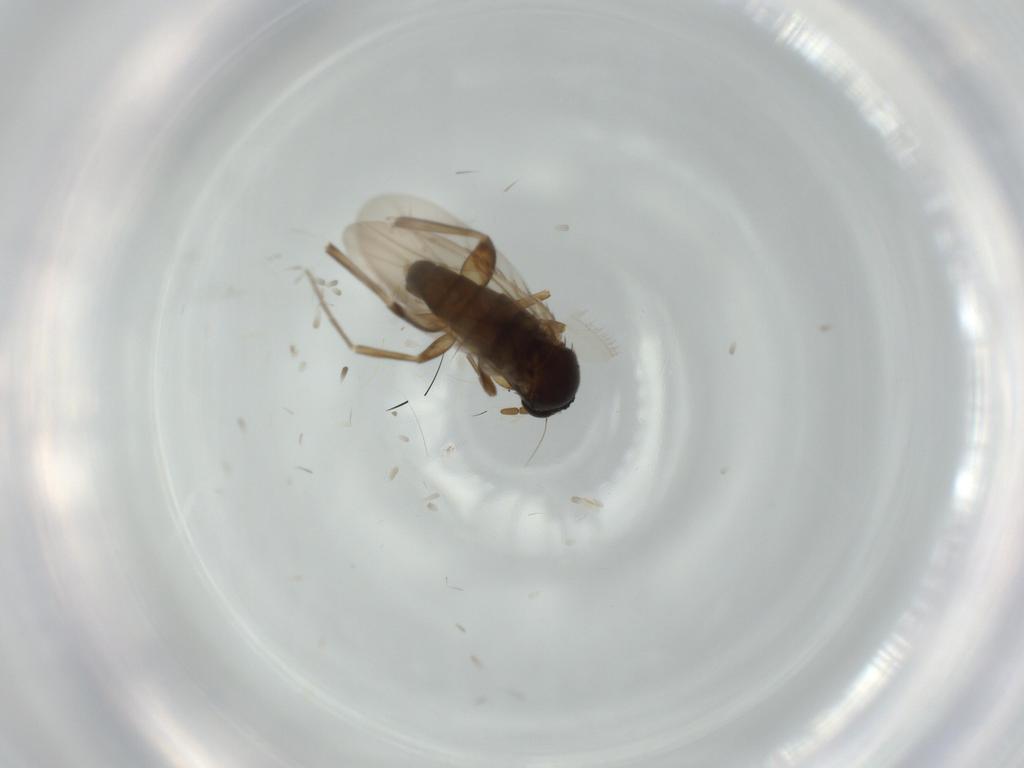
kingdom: Animalia
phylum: Arthropoda
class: Insecta
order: Diptera
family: Phoridae
